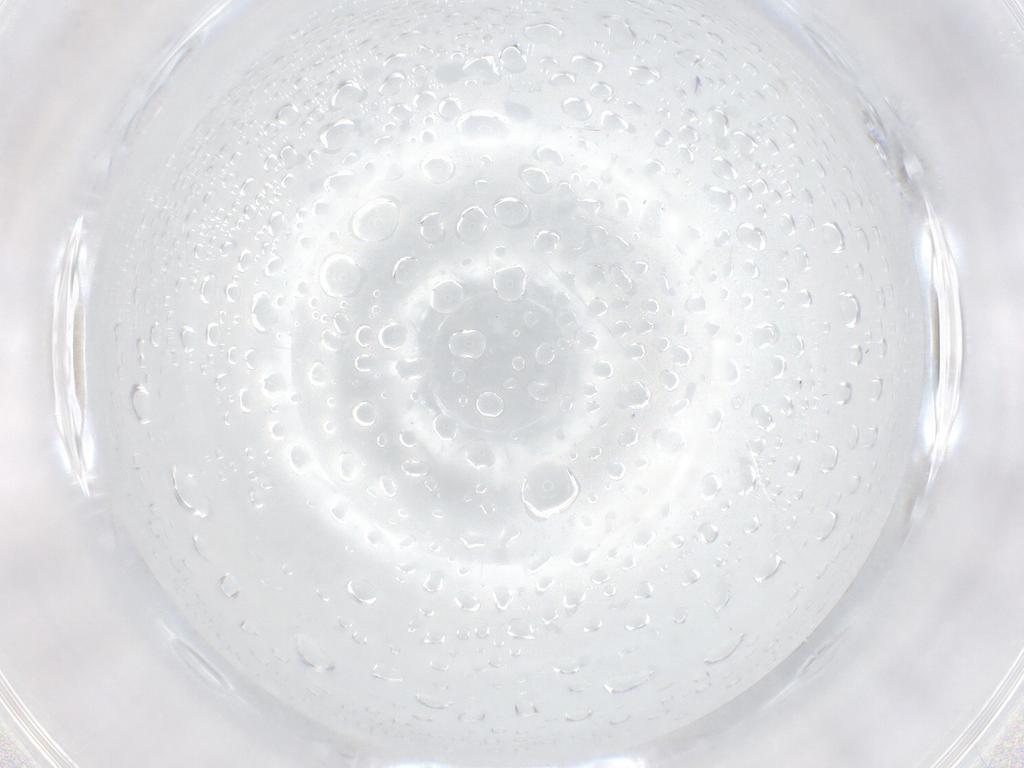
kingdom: Animalia
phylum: Arthropoda
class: Insecta
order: Diptera
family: Cecidomyiidae
